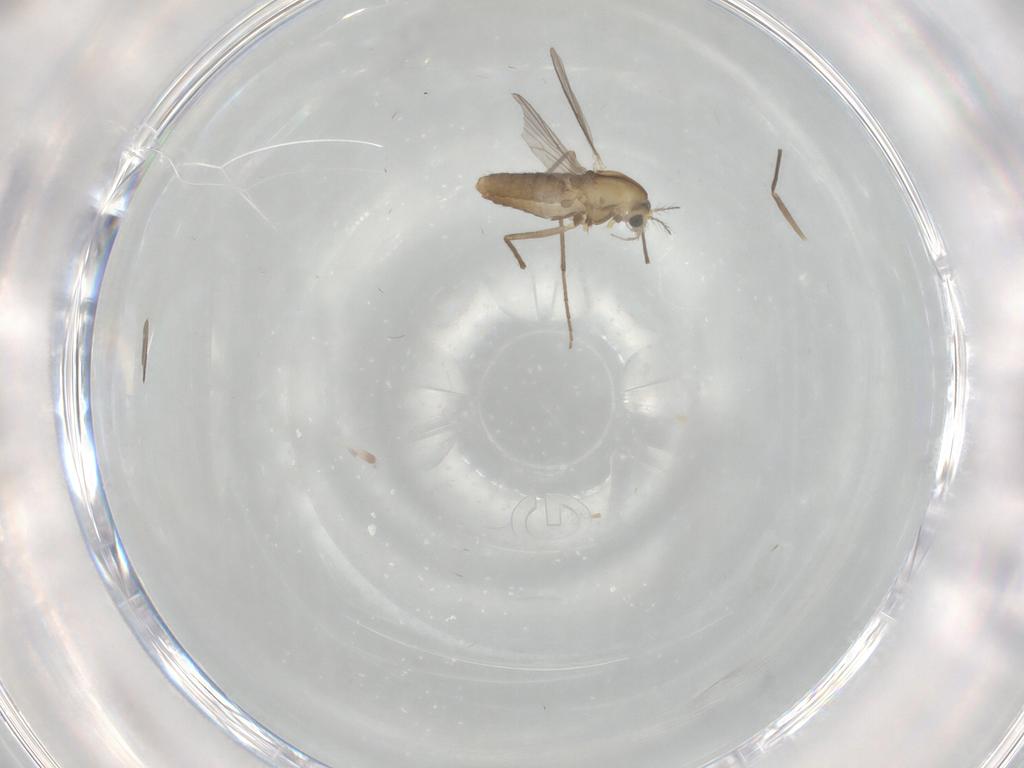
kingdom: Animalia
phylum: Arthropoda
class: Insecta
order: Diptera
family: Chironomidae
